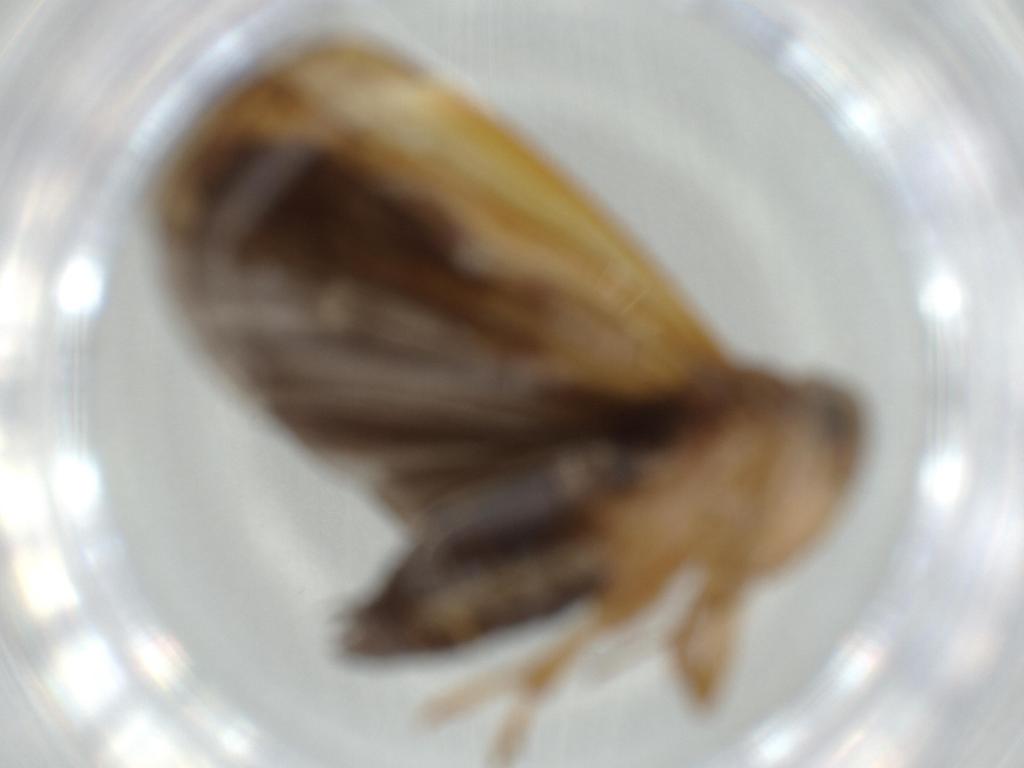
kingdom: Animalia
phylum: Arthropoda
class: Insecta
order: Hemiptera
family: Achilidae
